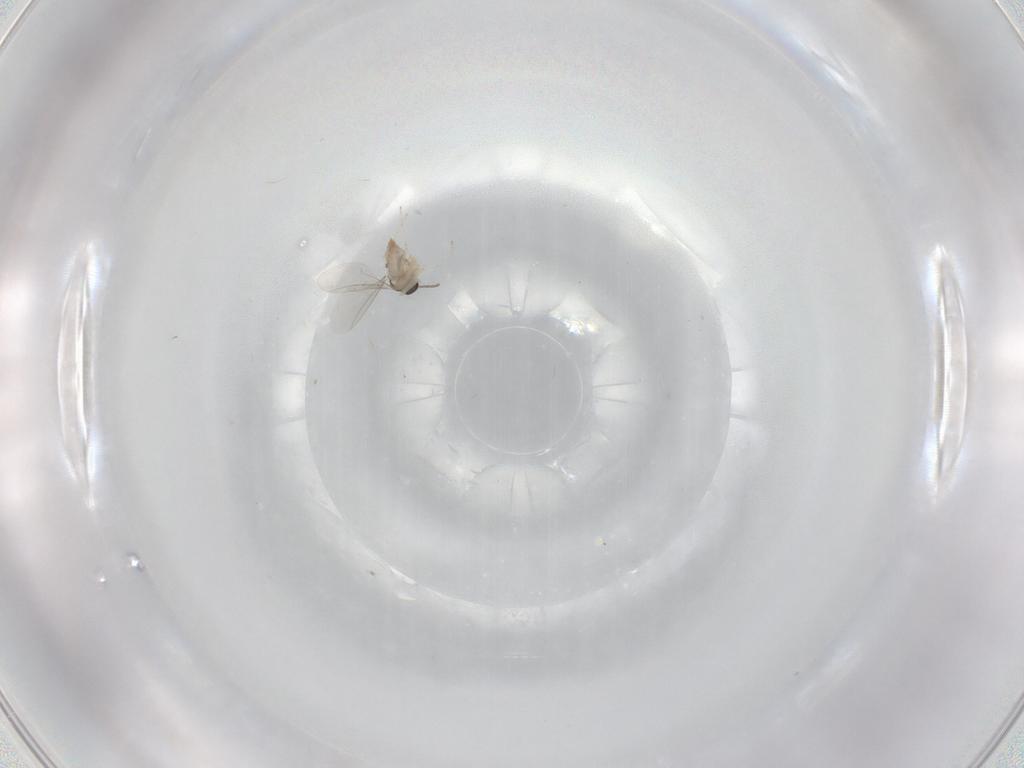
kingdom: Animalia
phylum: Arthropoda
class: Insecta
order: Diptera
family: Cecidomyiidae
